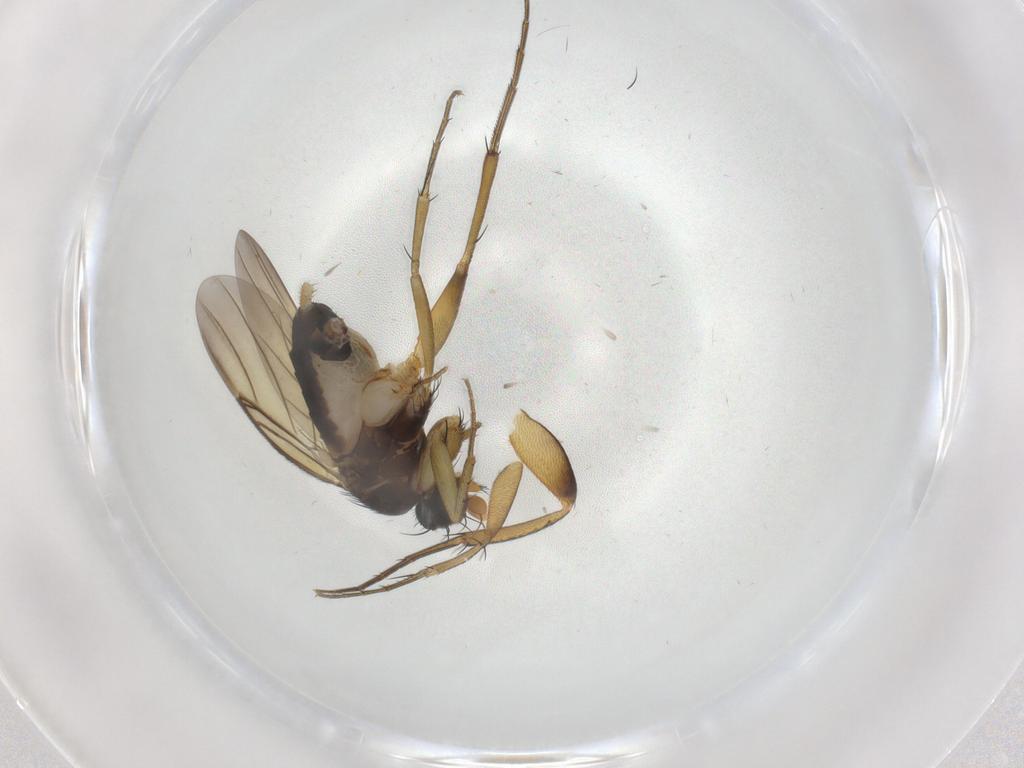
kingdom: Animalia
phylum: Arthropoda
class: Insecta
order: Diptera
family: Phoridae
